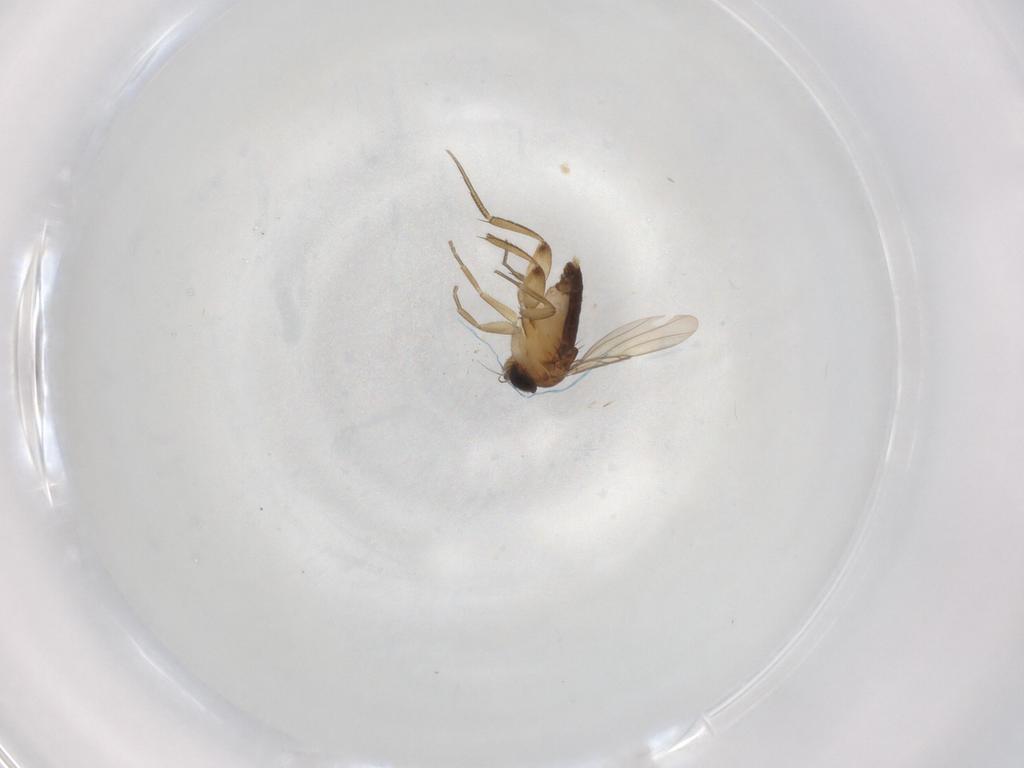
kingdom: Animalia
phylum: Arthropoda
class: Insecta
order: Diptera
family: Phoridae
